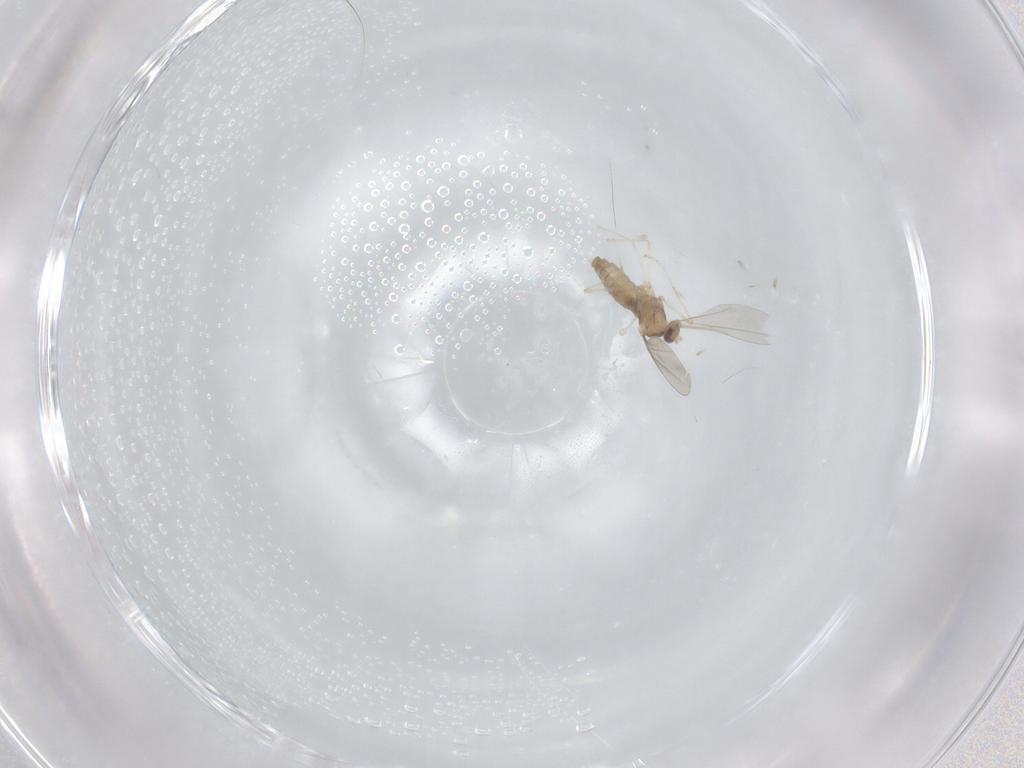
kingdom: Animalia
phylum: Arthropoda
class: Insecta
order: Diptera
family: Cecidomyiidae
